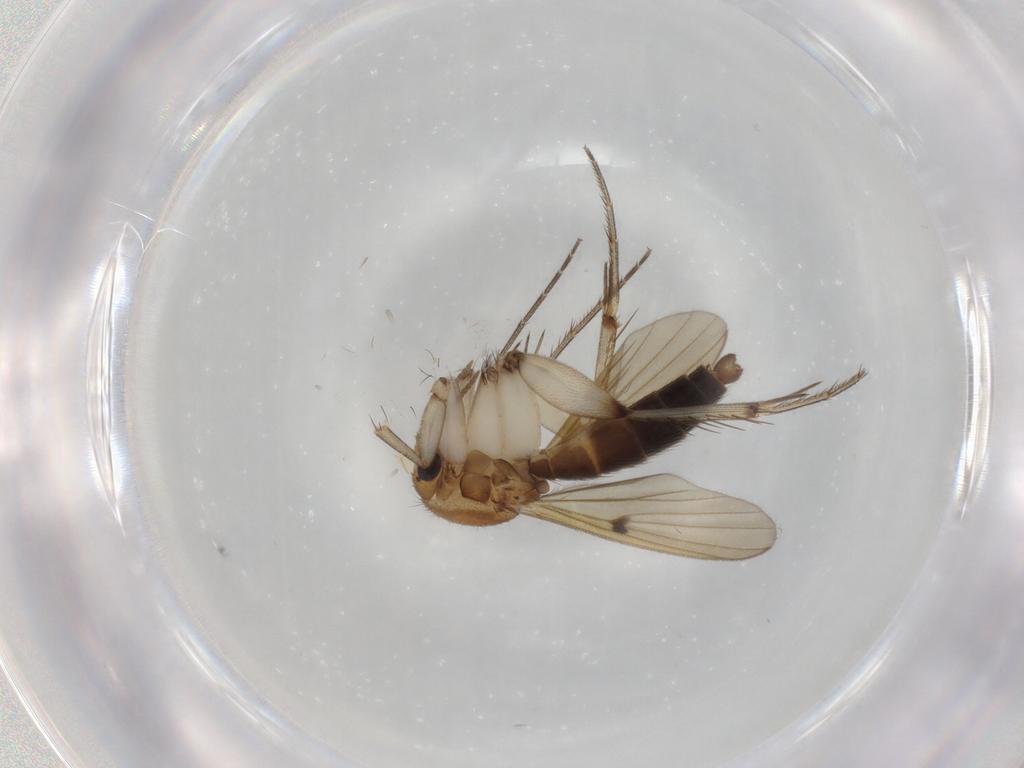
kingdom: Animalia
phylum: Arthropoda
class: Insecta
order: Diptera
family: Mycetophilidae
